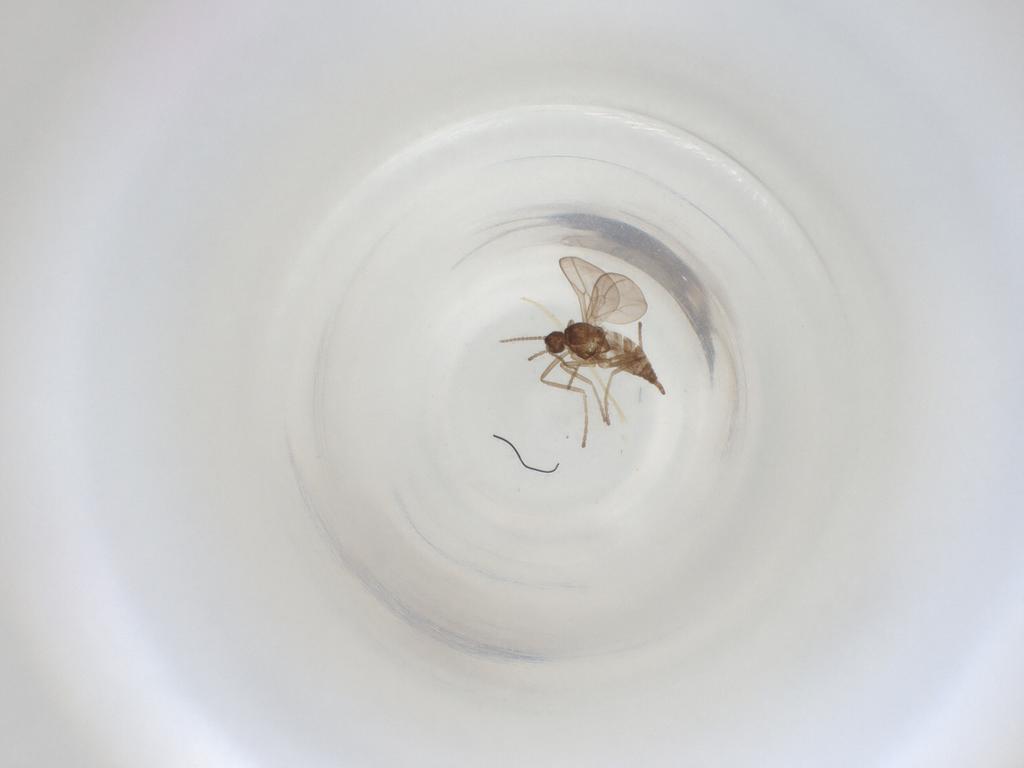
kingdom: Animalia
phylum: Arthropoda
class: Insecta
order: Diptera
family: Cecidomyiidae
